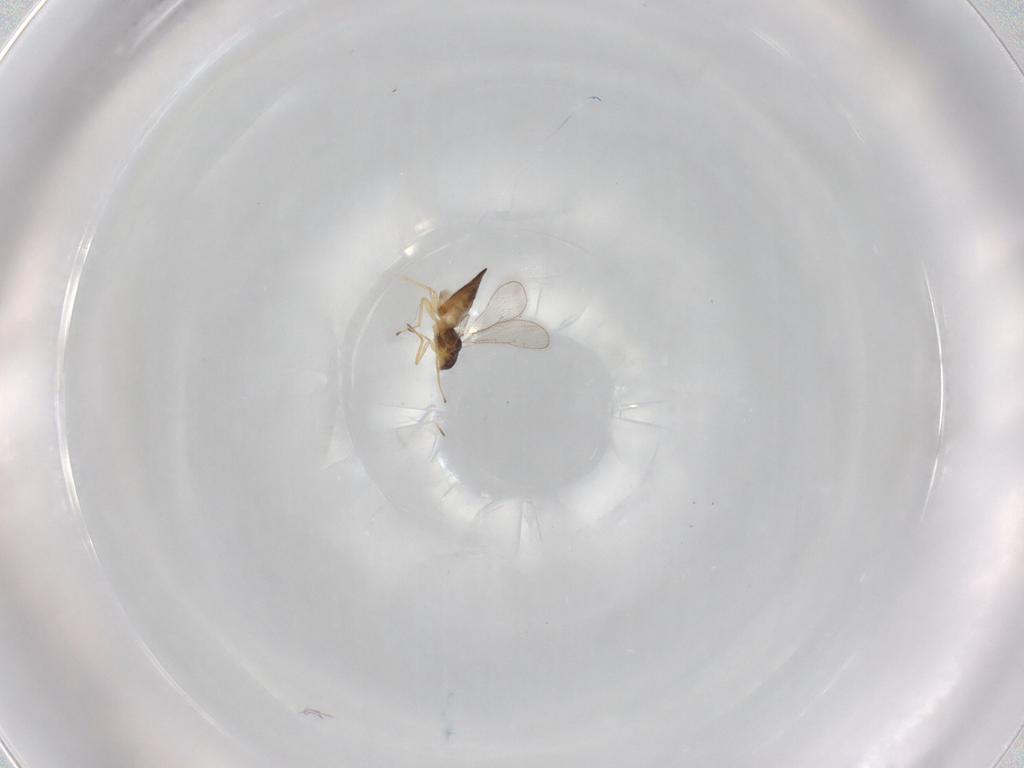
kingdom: Animalia
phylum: Arthropoda
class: Insecta
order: Hymenoptera
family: Eulophidae
